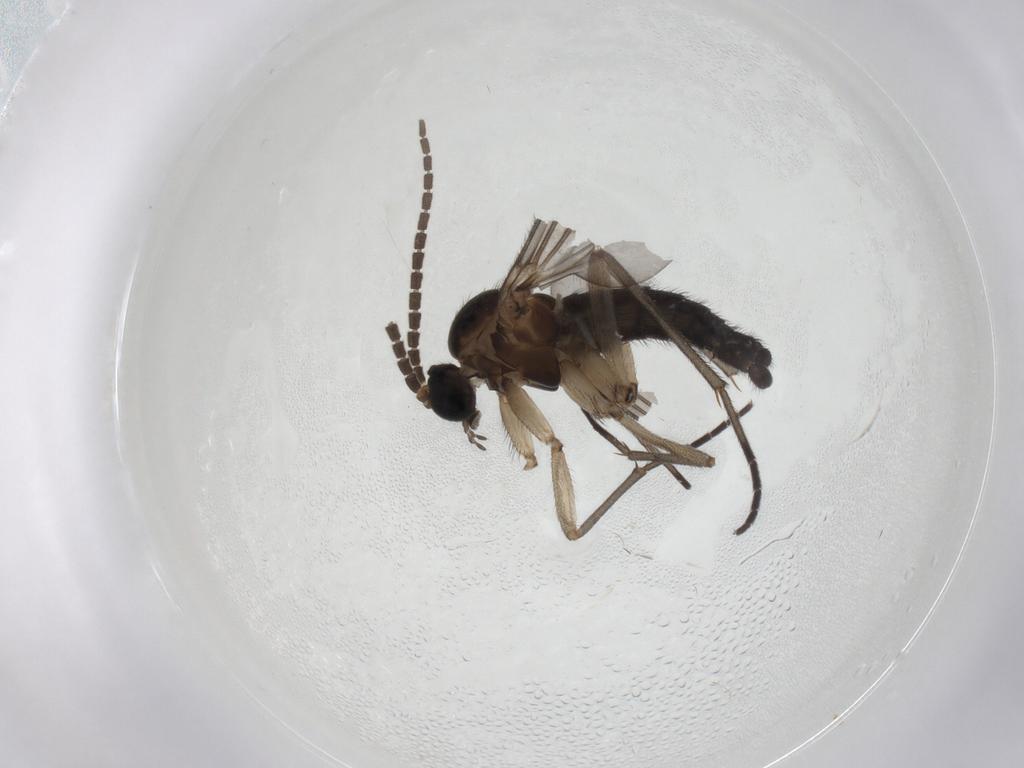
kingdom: Animalia
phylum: Arthropoda
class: Insecta
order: Diptera
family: Sciaridae
